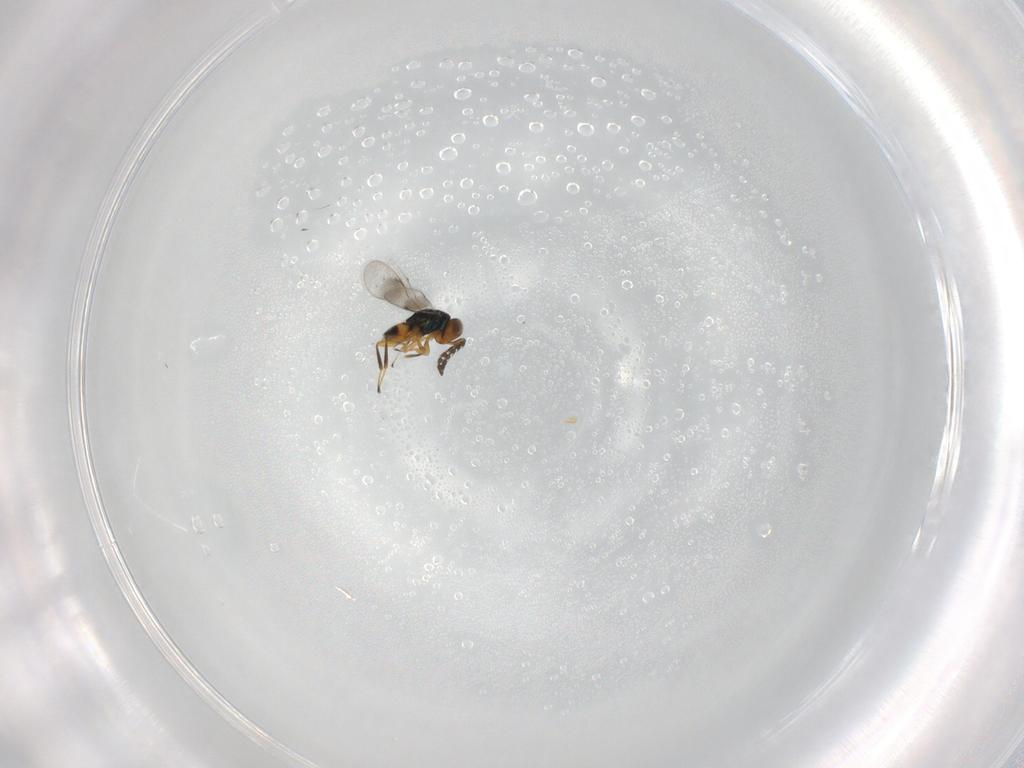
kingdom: Animalia
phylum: Arthropoda
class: Insecta
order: Hymenoptera
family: Eulophidae
